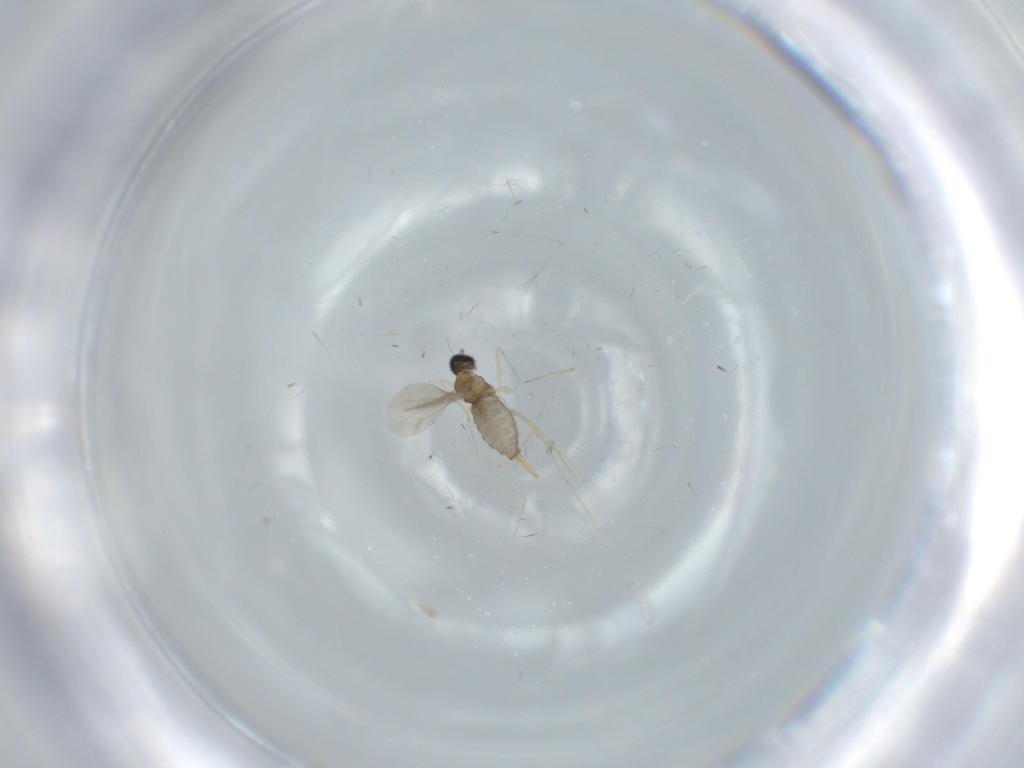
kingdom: Animalia
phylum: Arthropoda
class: Insecta
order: Diptera
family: Cecidomyiidae
